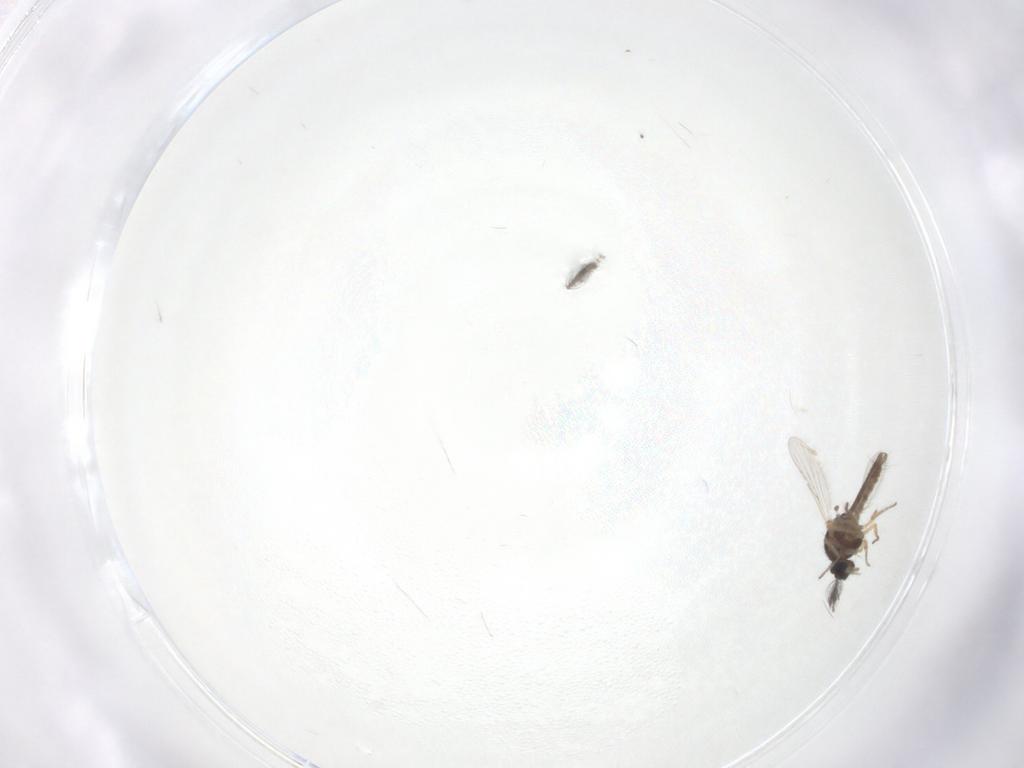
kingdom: Animalia
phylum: Arthropoda
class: Insecta
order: Diptera
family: Ceratopogonidae
